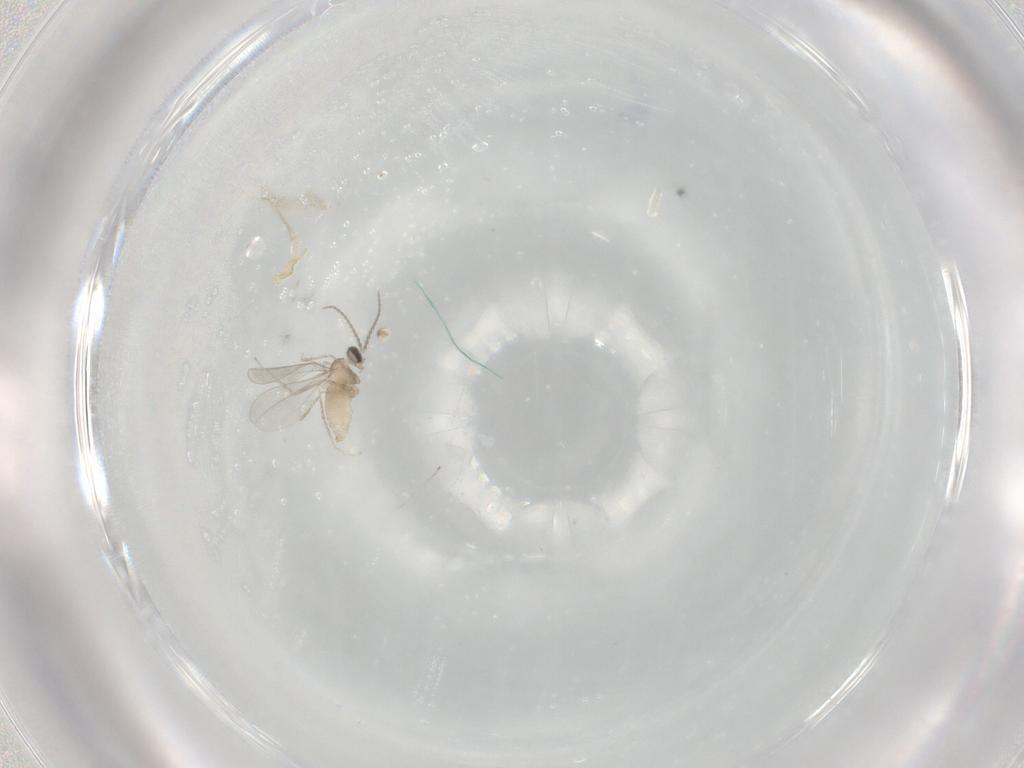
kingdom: Animalia
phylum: Arthropoda
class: Insecta
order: Diptera
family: Cecidomyiidae
